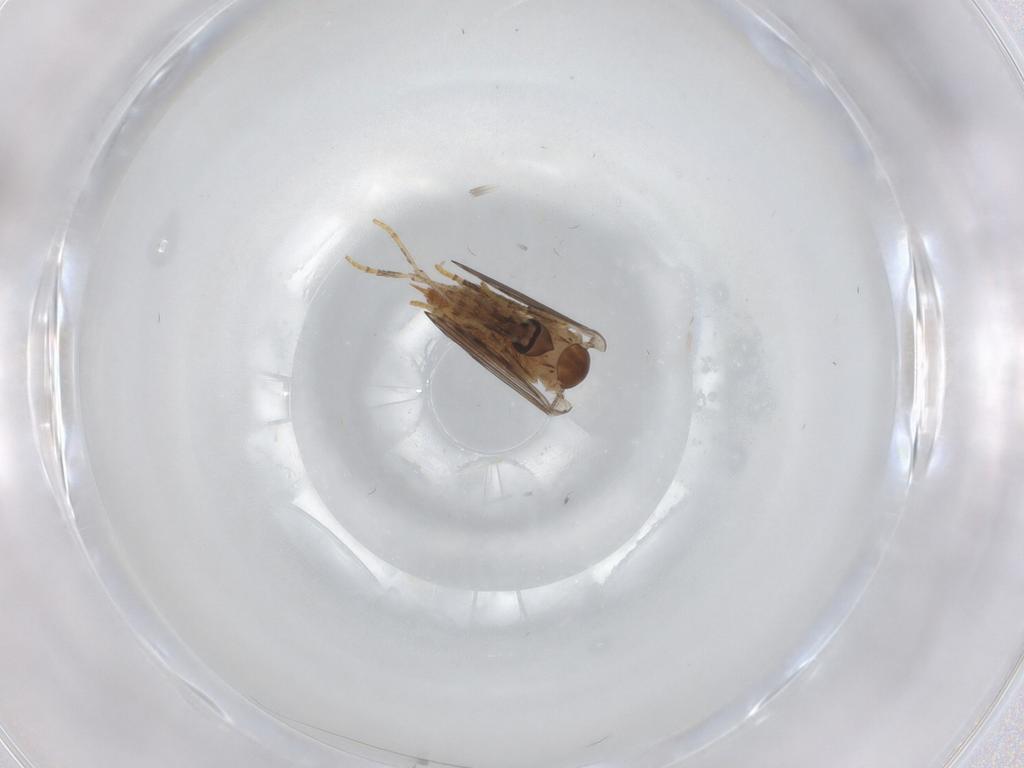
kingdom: Animalia
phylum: Arthropoda
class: Insecta
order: Diptera
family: Psychodidae
